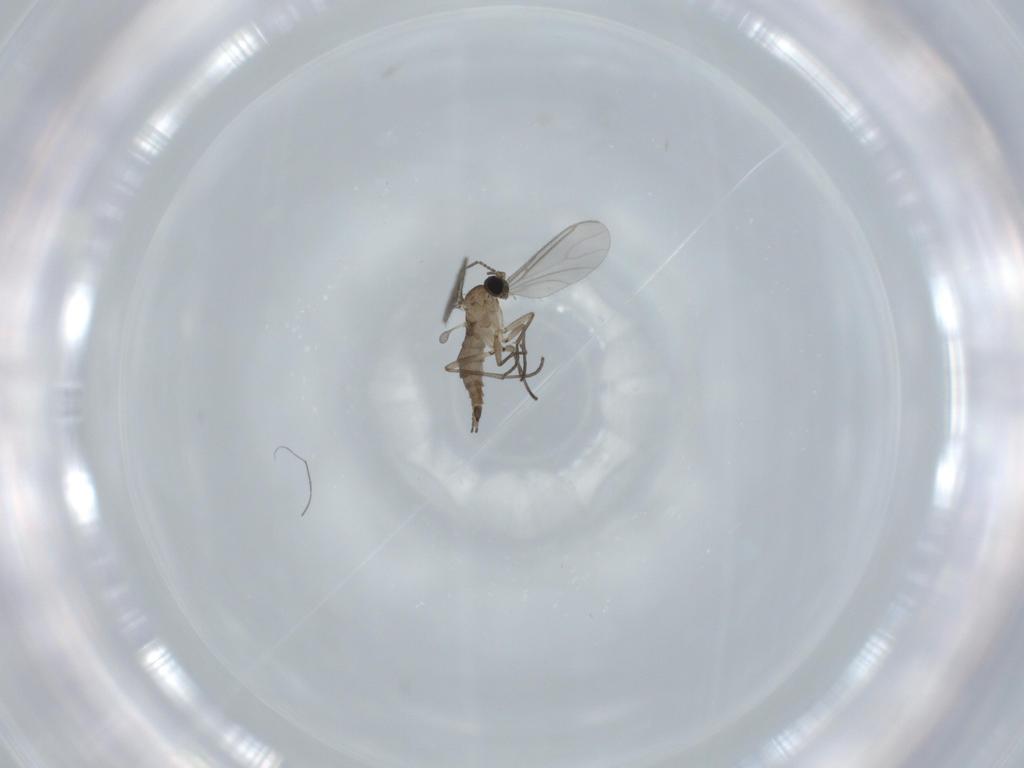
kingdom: Animalia
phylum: Arthropoda
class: Insecta
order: Diptera
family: Sciaridae
